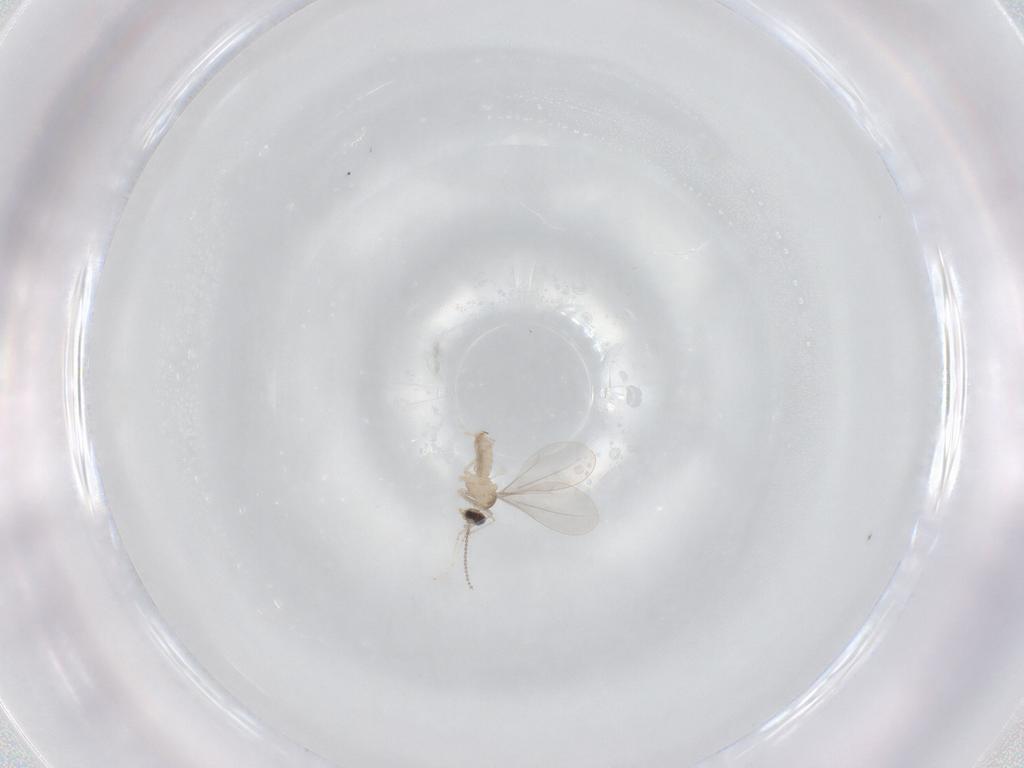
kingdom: Animalia
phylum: Arthropoda
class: Insecta
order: Diptera
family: Cecidomyiidae
